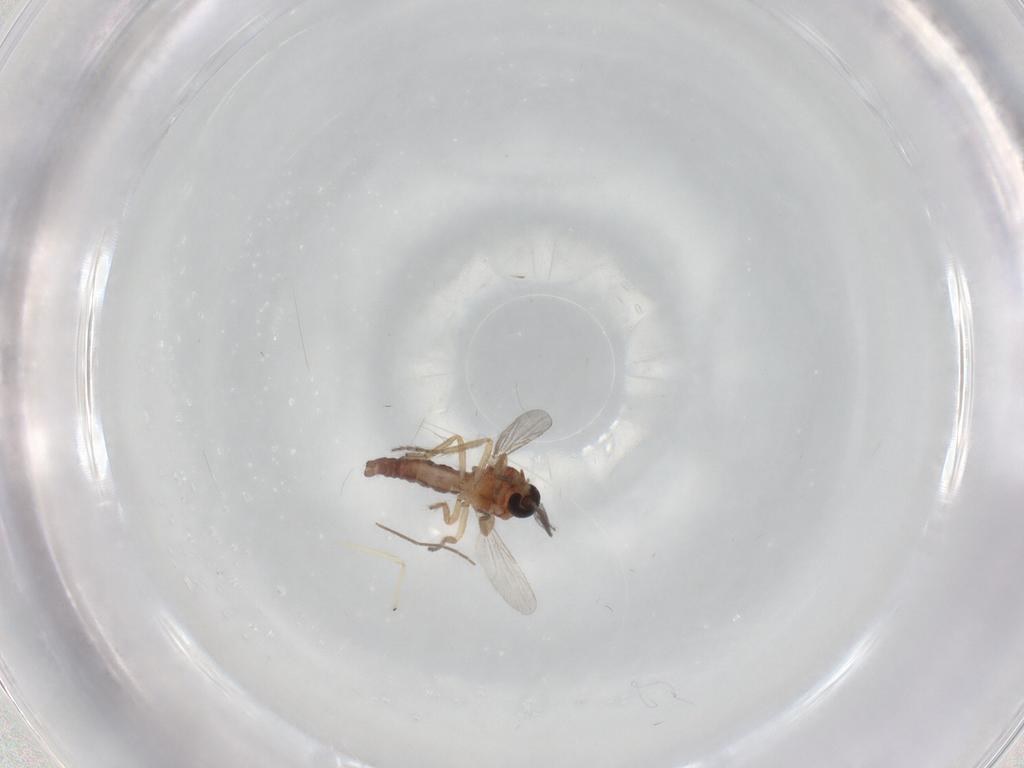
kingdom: Animalia
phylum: Arthropoda
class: Insecta
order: Diptera
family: Ceratopogonidae
